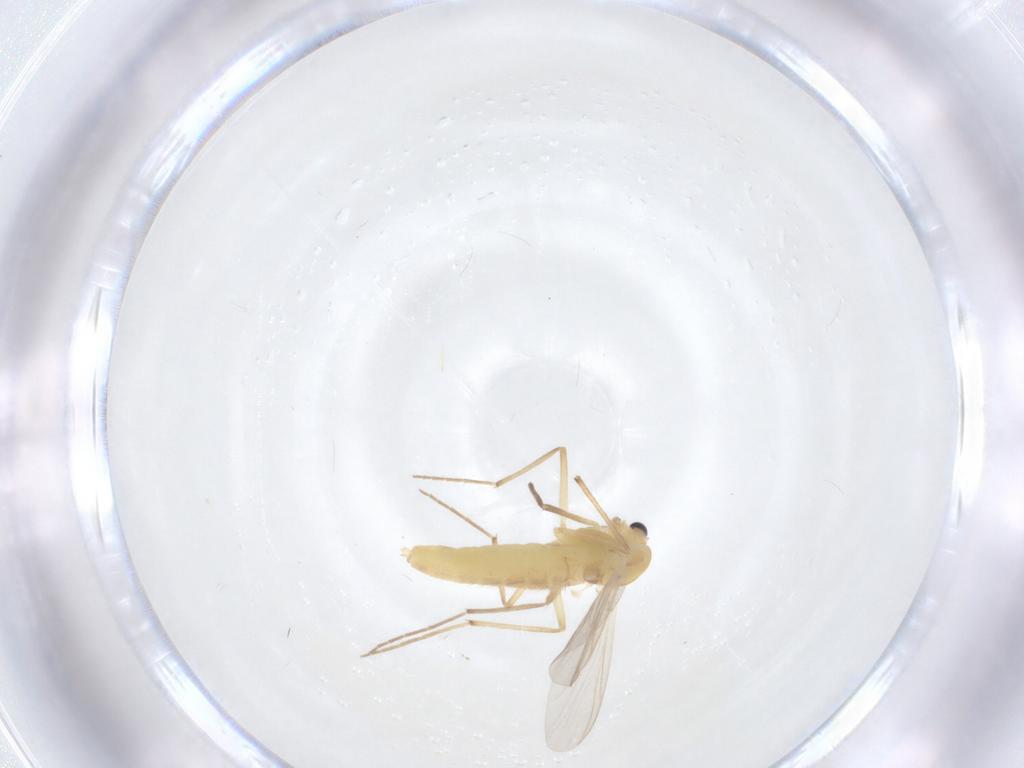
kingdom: Animalia
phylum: Arthropoda
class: Insecta
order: Diptera
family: Chironomidae
